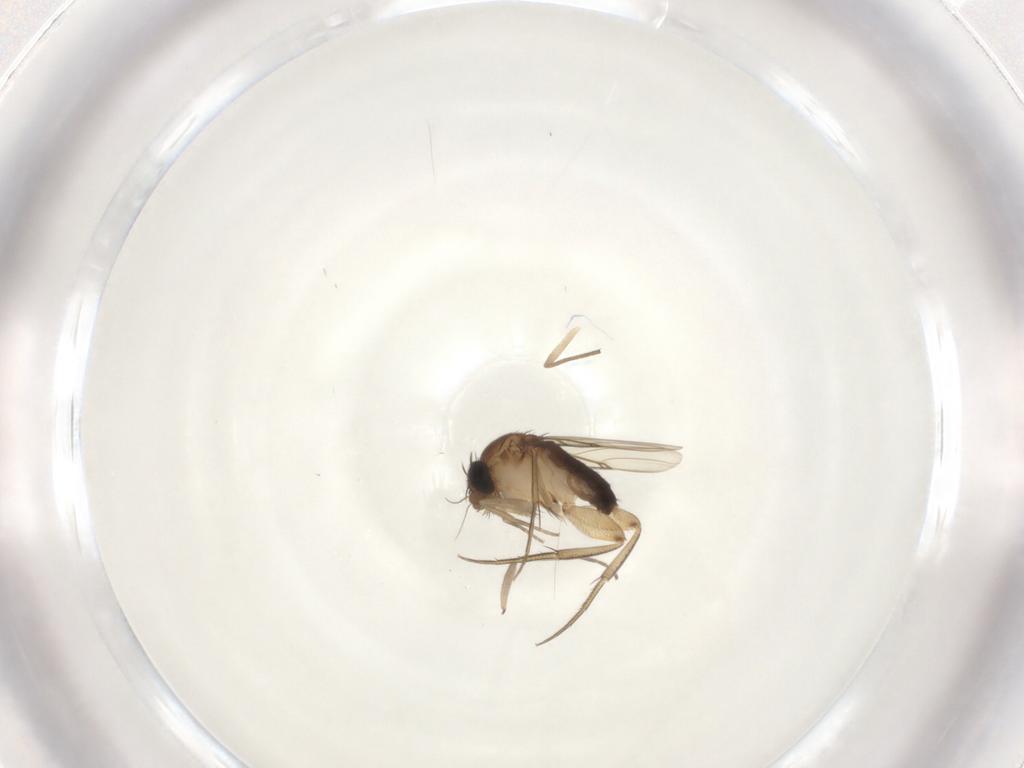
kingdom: Animalia
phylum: Arthropoda
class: Insecta
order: Diptera
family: Phoridae
